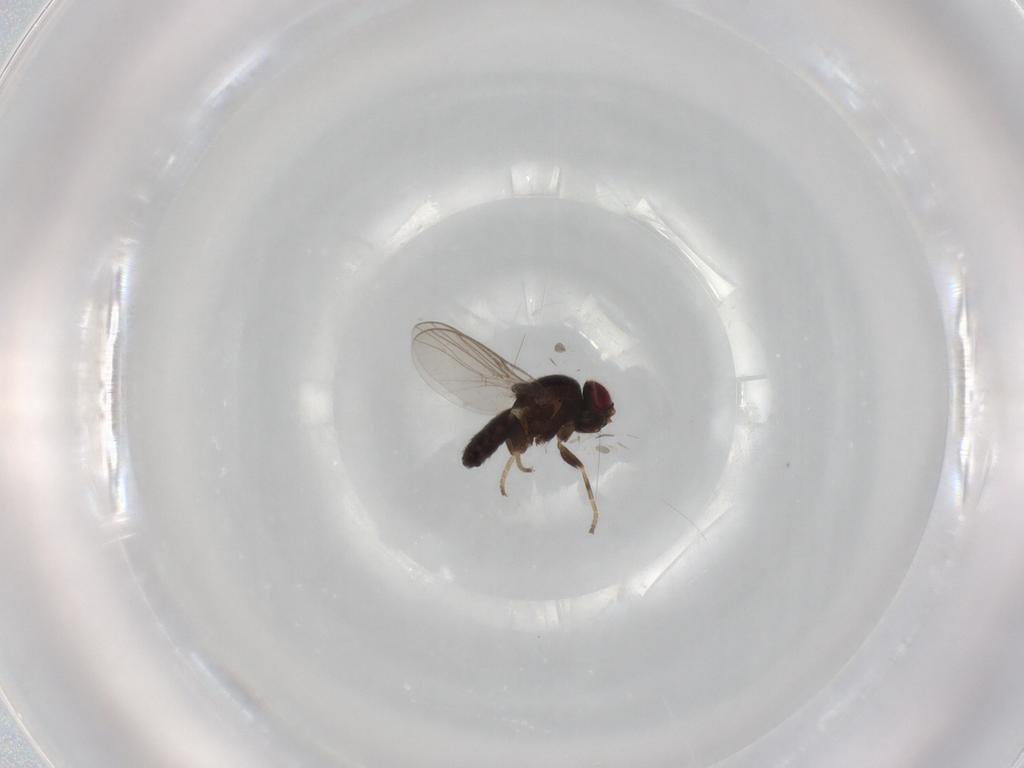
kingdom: Animalia
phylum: Arthropoda
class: Insecta
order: Diptera
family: Chloropidae
